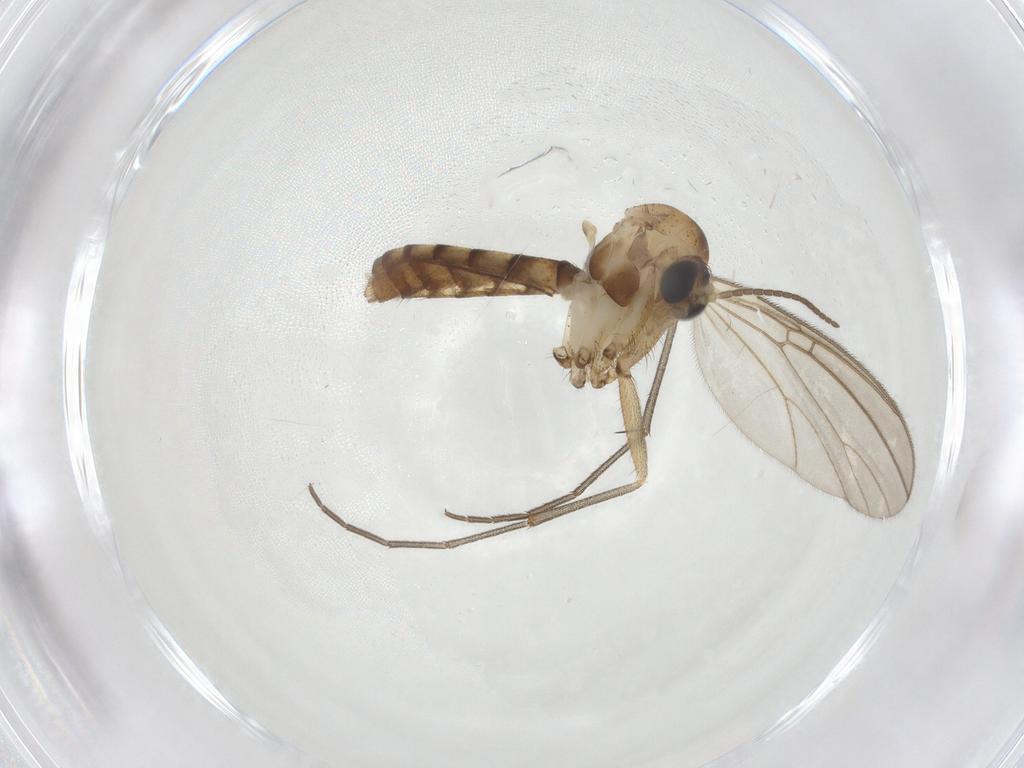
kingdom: Animalia
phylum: Arthropoda
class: Insecta
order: Diptera
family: Mycetophilidae
